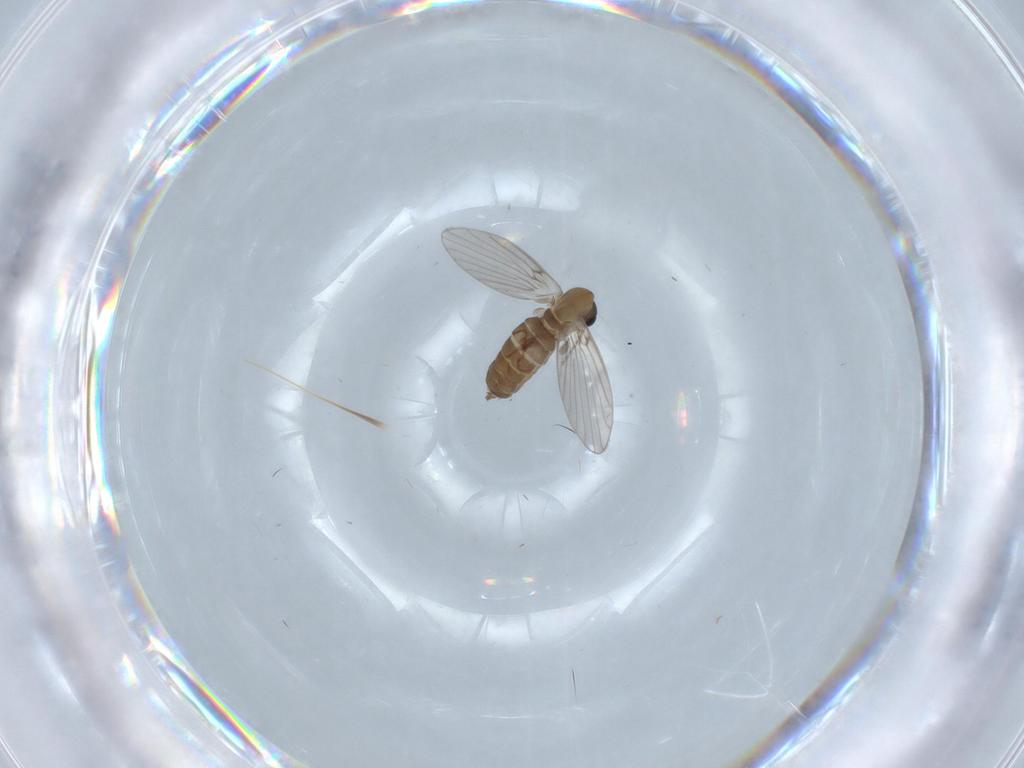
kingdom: Animalia
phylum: Arthropoda
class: Insecta
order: Diptera
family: Psychodidae
